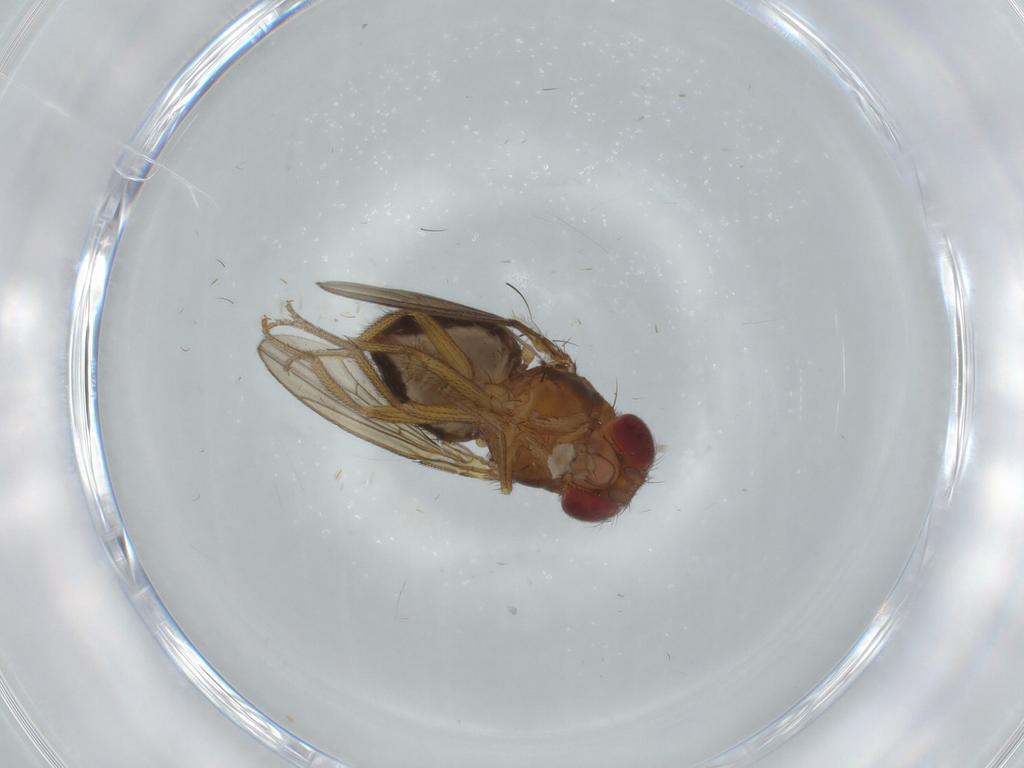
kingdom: Animalia
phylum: Arthropoda
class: Insecta
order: Diptera
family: Drosophilidae
